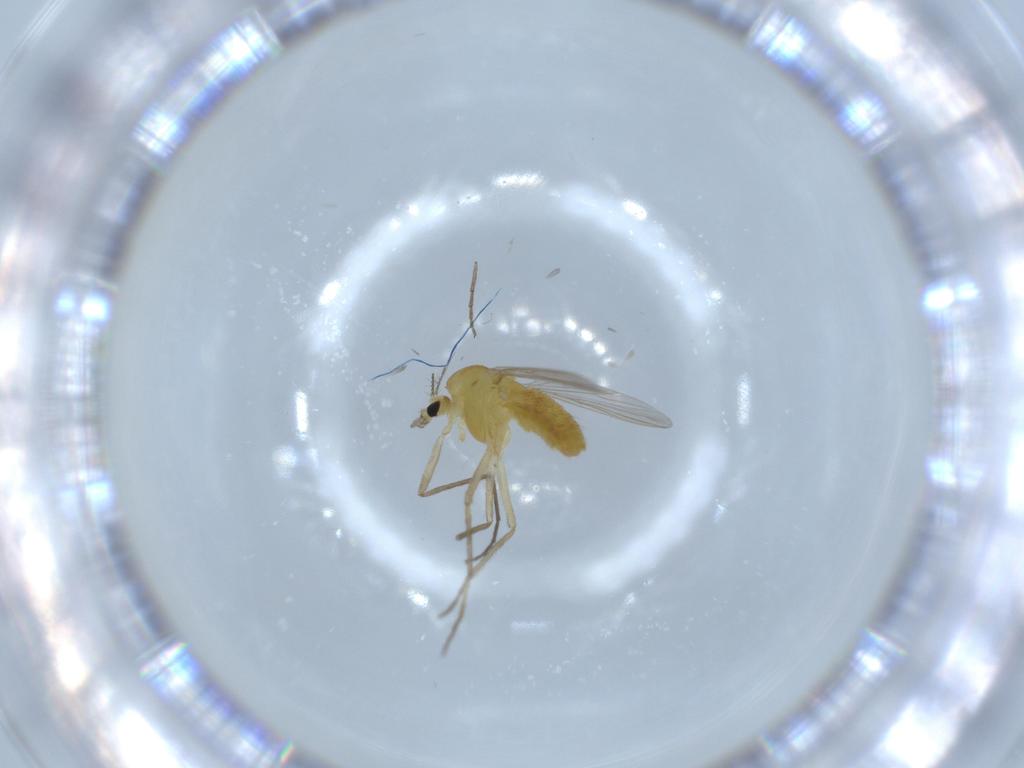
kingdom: Animalia
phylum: Arthropoda
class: Insecta
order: Diptera
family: Chironomidae
